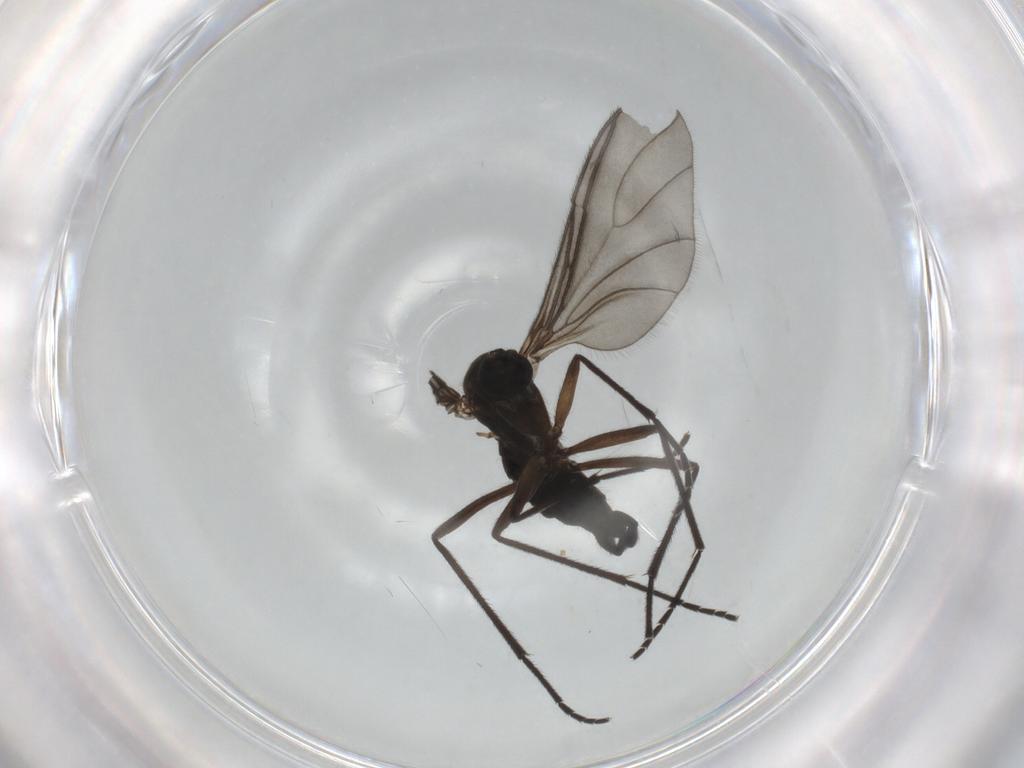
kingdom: Animalia
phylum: Arthropoda
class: Insecta
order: Diptera
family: Sciaridae
